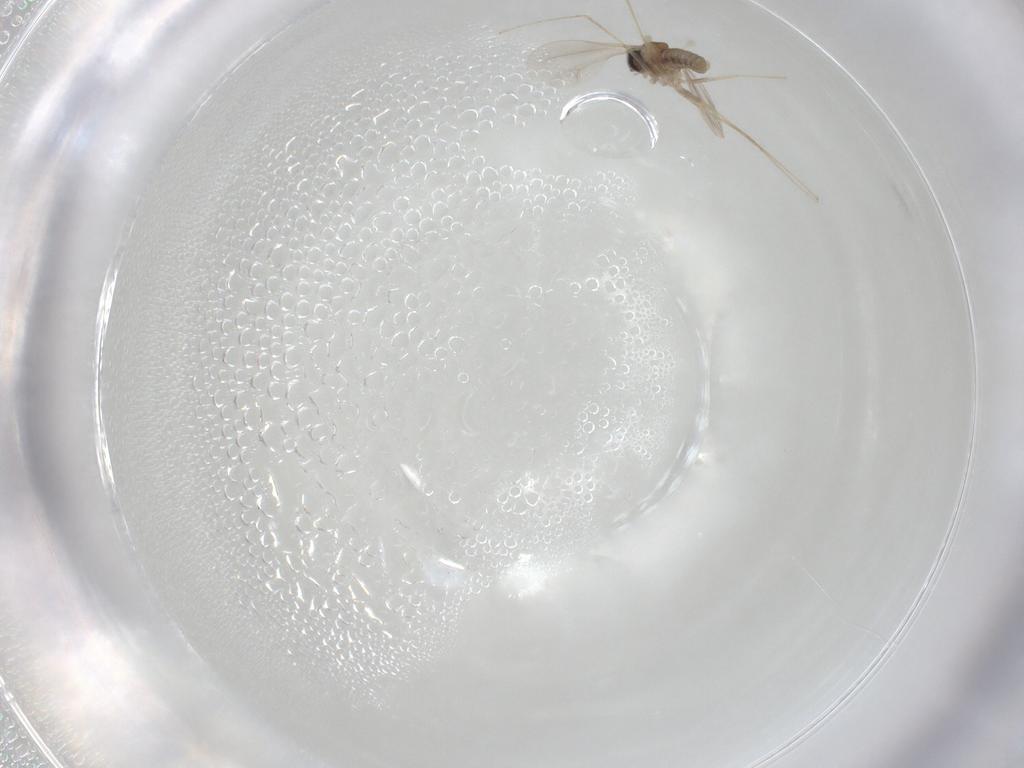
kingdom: Animalia
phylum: Arthropoda
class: Insecta
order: Diptera
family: Cecidomyiidae
